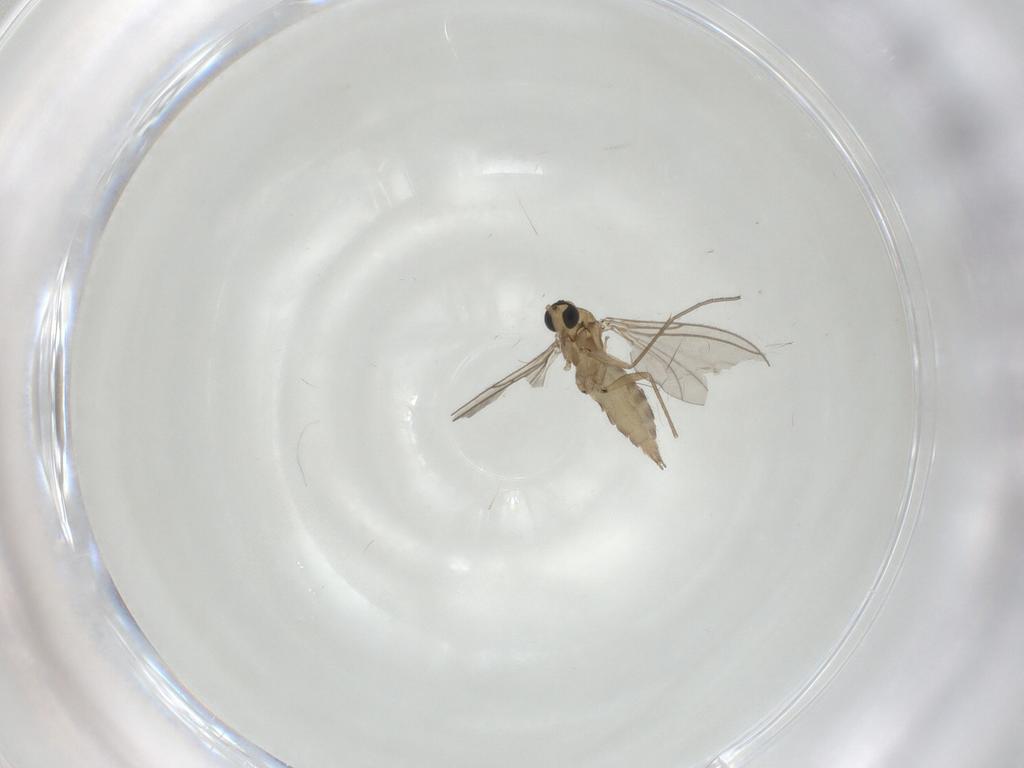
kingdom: Animalia
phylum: Arthropoda
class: Insecta
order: Diptera
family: Sciaridae
